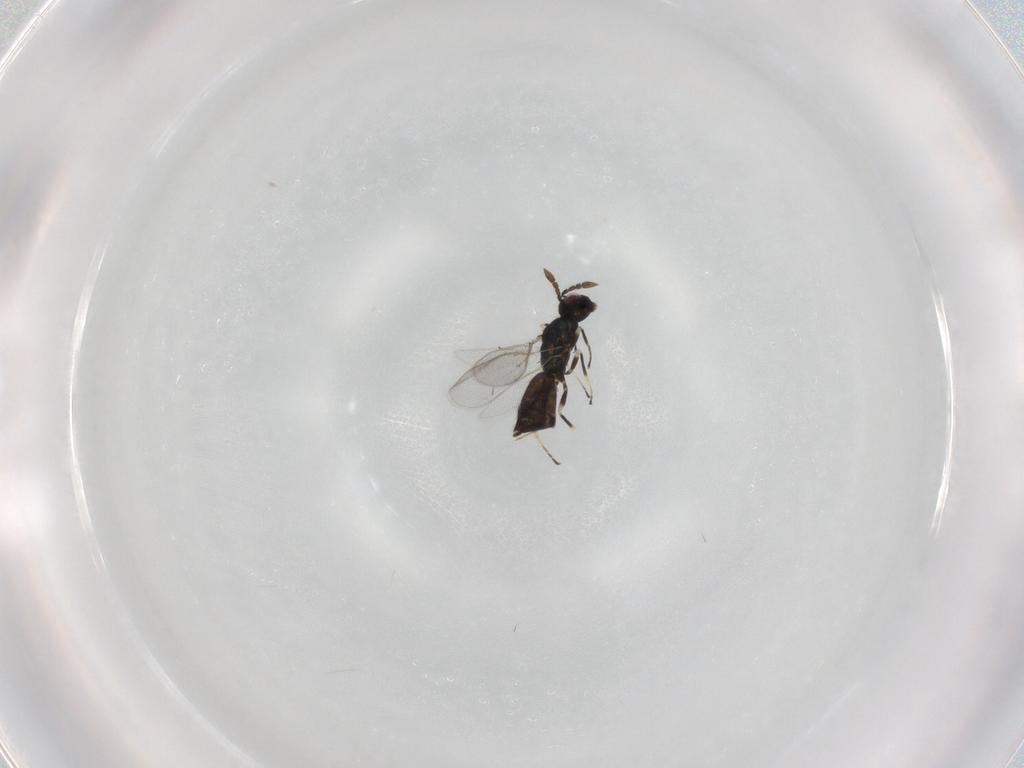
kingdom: Animalia
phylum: Arthropoda
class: Insecta
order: Hymenoptera
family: Eulophidae
